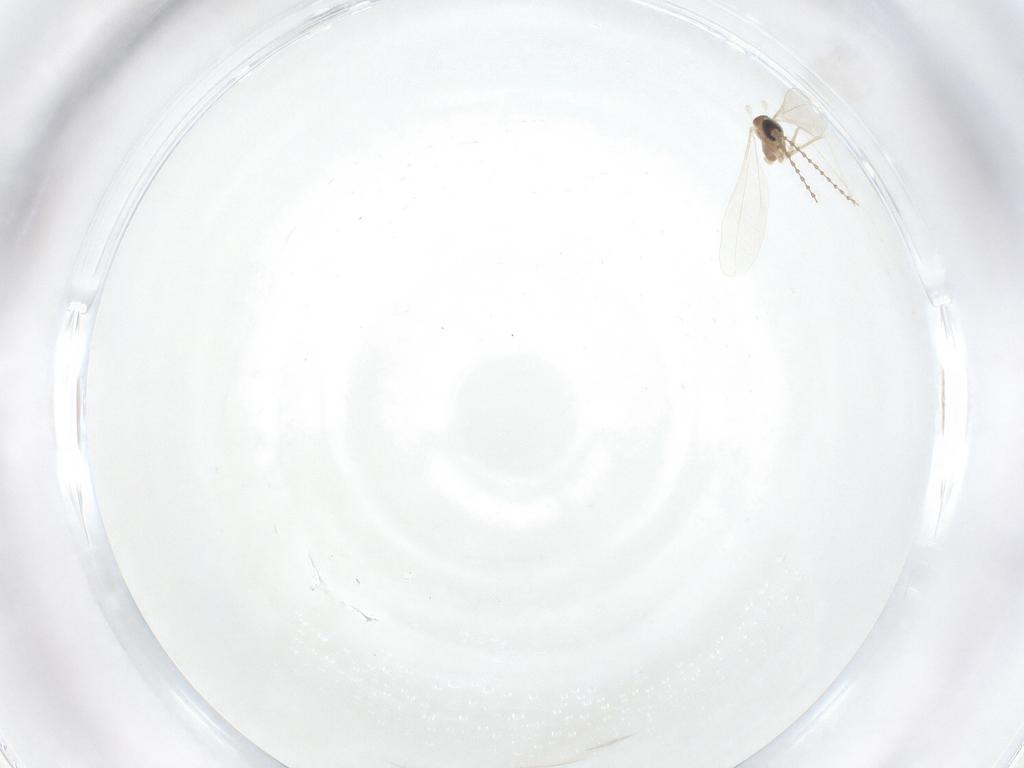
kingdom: Animalia
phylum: Arthropoda
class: Insecta
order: Diptera
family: Cecidomyiidae
